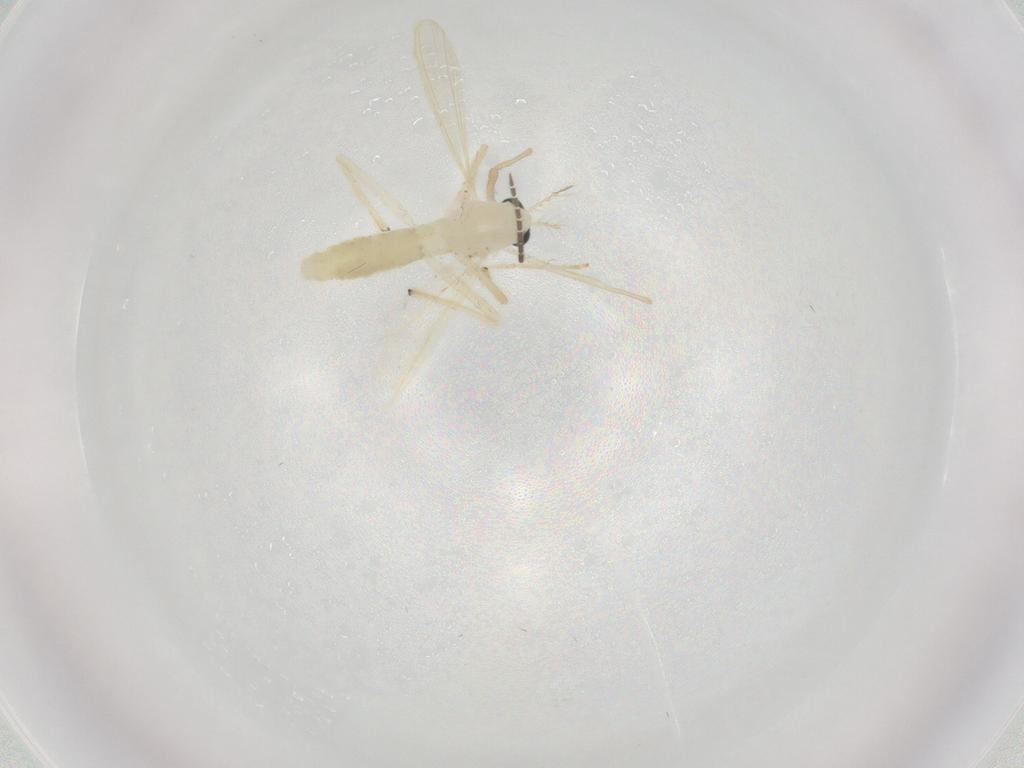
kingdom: Animalia
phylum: Arthropoda
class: Insecta
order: Diptera
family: Chironomidae
